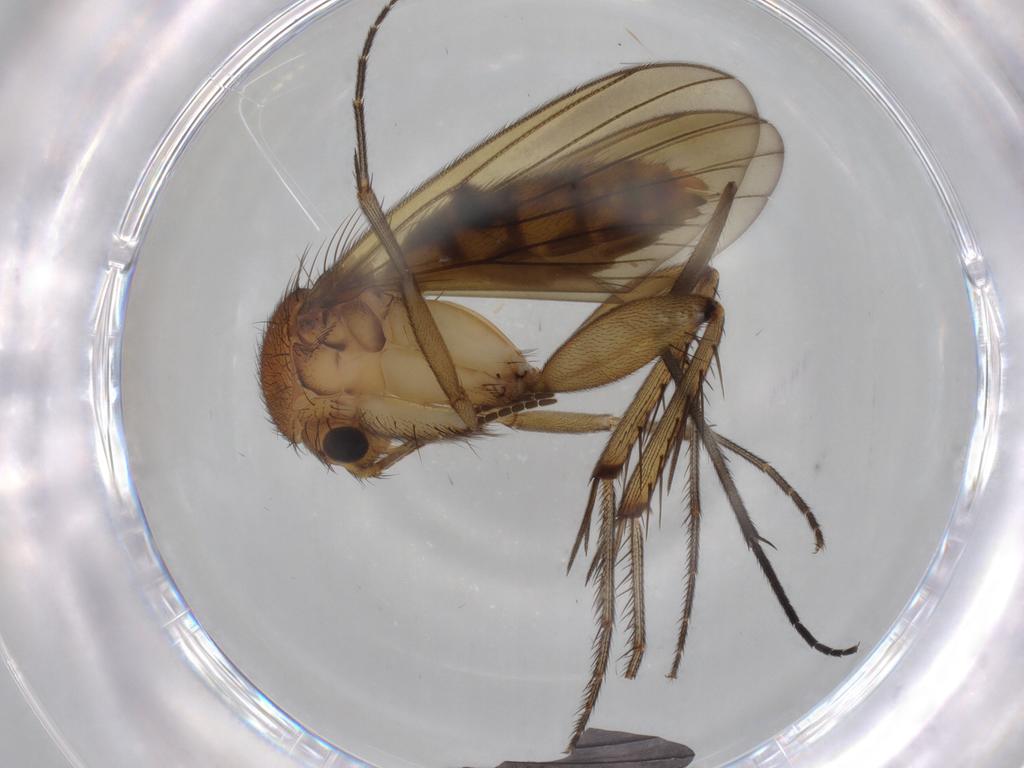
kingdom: Animalia
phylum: Arthropoda
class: Insecta
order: Diptera
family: Mycetophilidae
